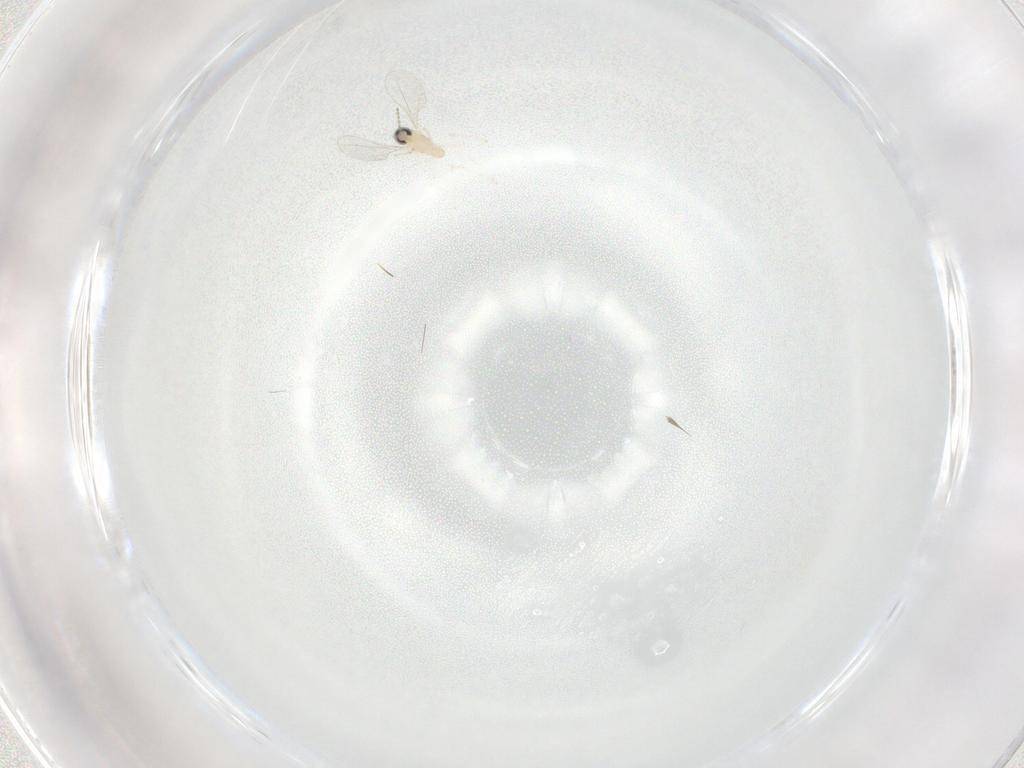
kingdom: Animalia
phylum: Arthropoda
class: Insecta
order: Diptera
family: Cecidomyiidae
